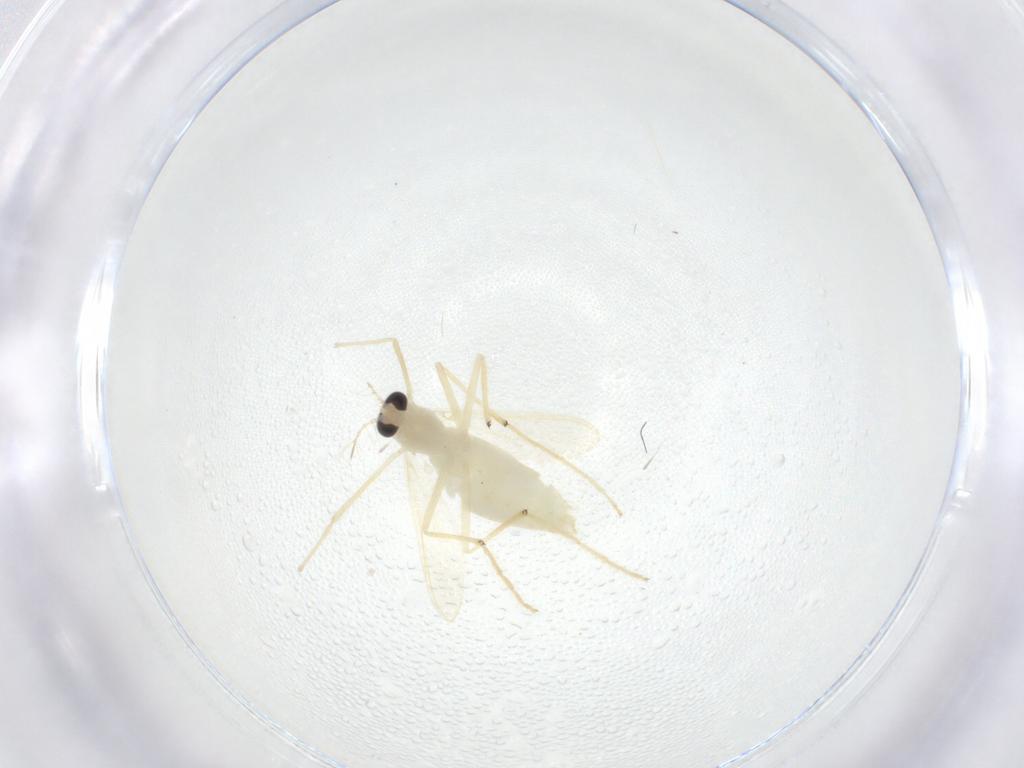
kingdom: Animalia
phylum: Arthropoda
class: Insecta
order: Diptera
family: Chironomidae
